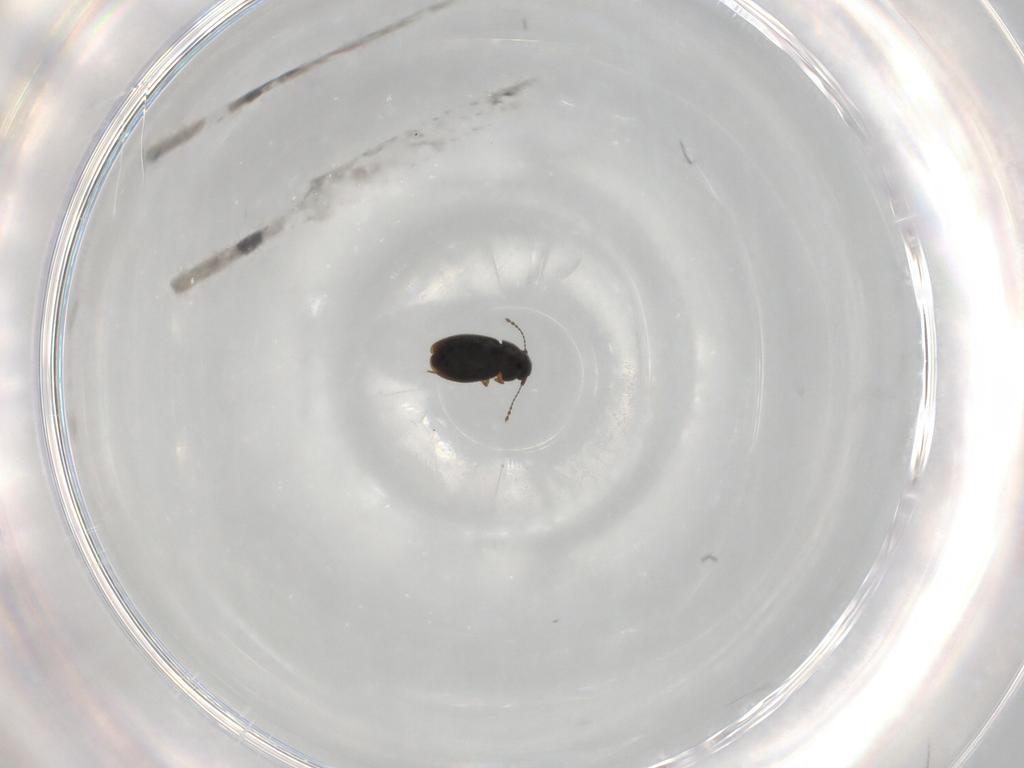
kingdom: Animalia
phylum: Arthropoda
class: Insecta
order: Coleoptera
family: Ptiliidae
